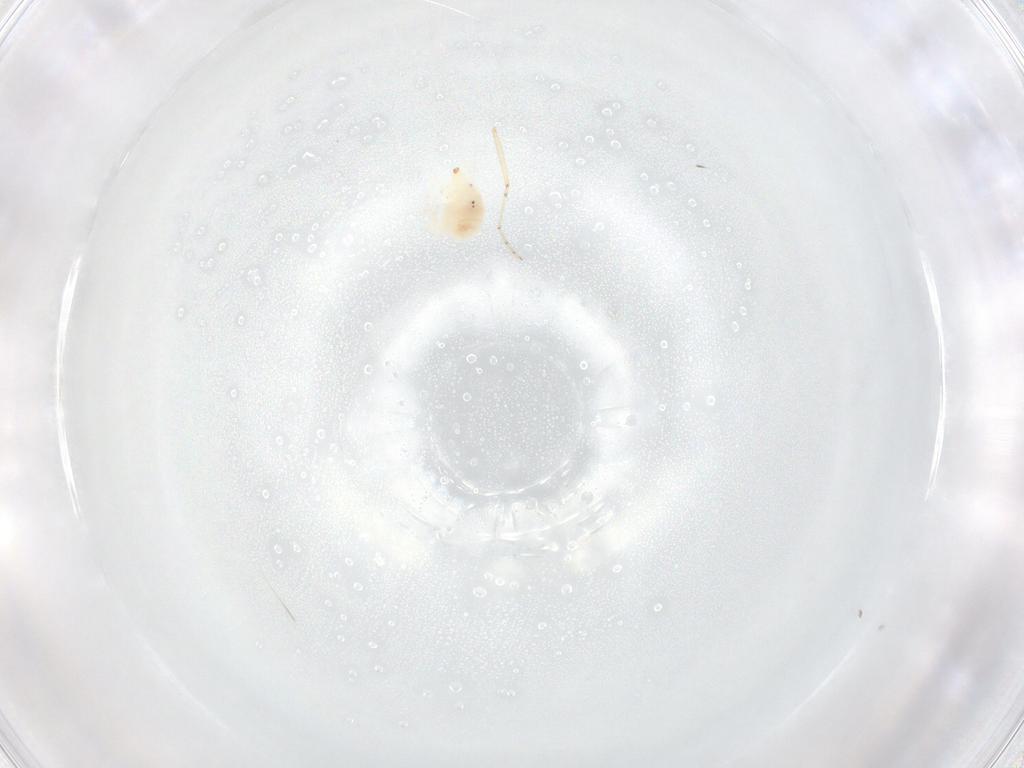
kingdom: Animalia
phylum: Arthropoda
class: Arachnida
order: Trombidiformes
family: Bdellidae
